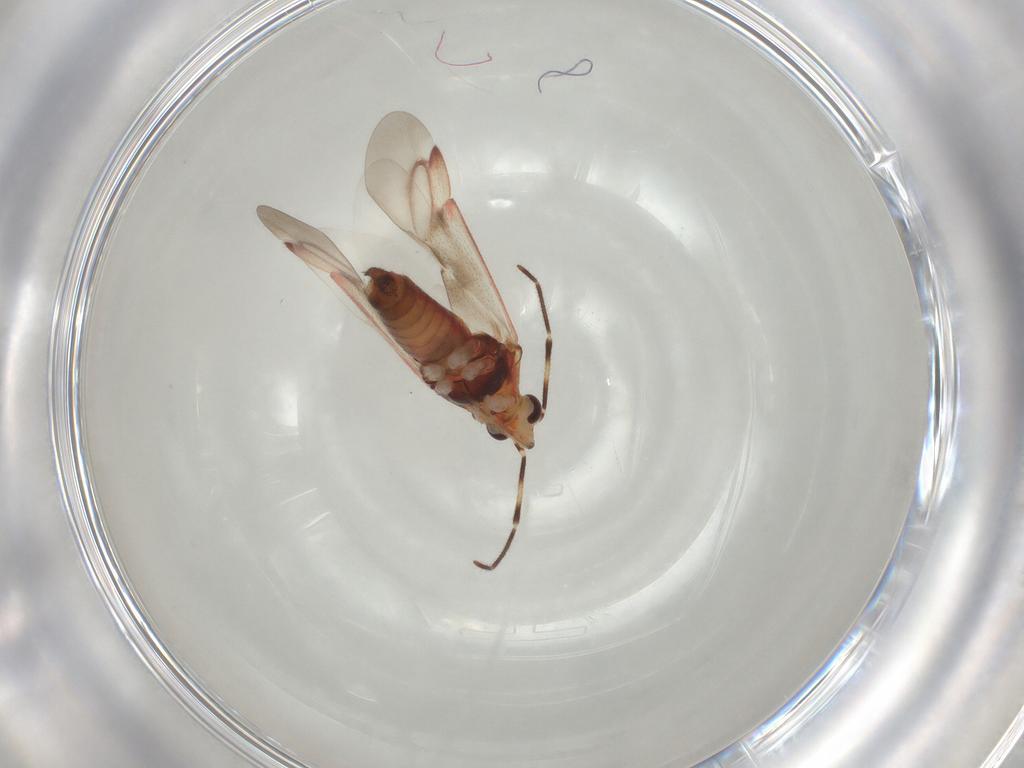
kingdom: Animalia
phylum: Arthropoda
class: Insecta
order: Hemiptera
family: Miridae
